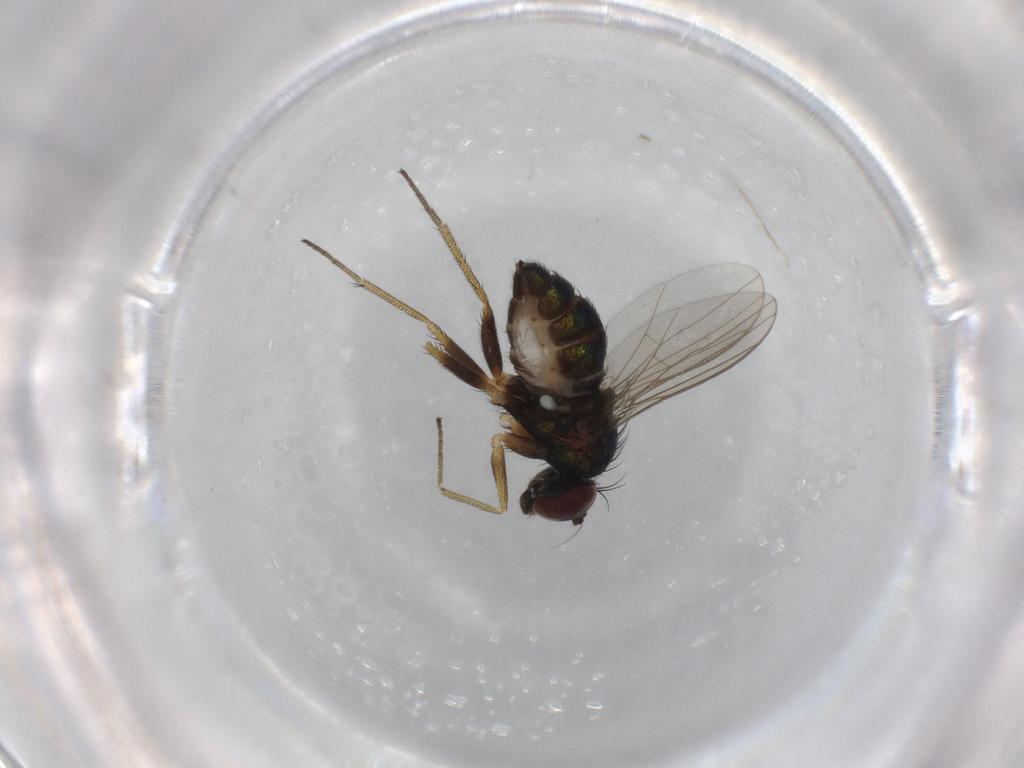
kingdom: Animalia
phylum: Arthropoda
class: Insecta
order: Diptera
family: Dolichopodidae
